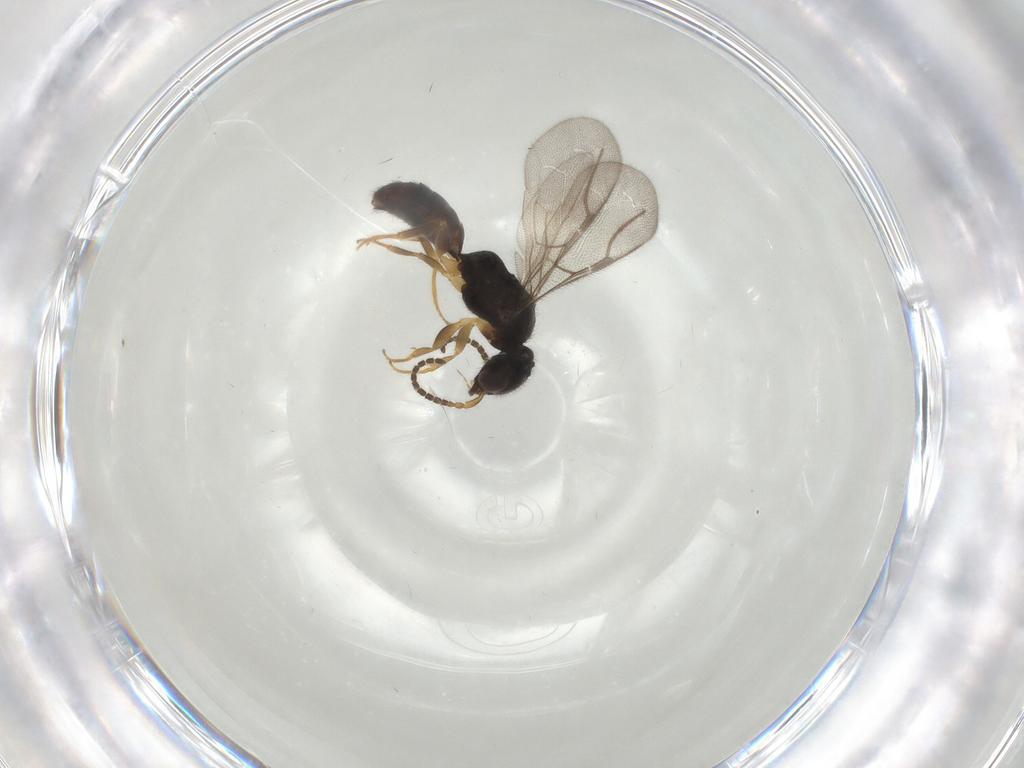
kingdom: Animalia
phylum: Arthropoda
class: Insecta
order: Hymenoptera
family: Bethylidae
